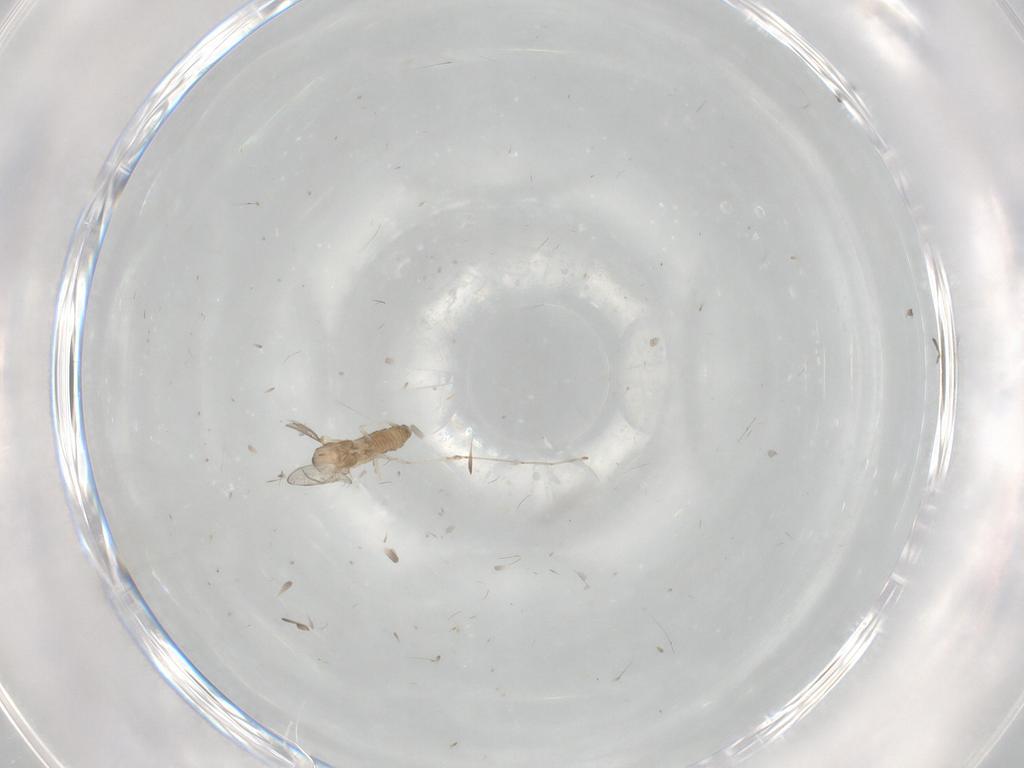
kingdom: Animalia
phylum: Arthropoda
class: Insecta
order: Diptera
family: Cecidomyiidae
